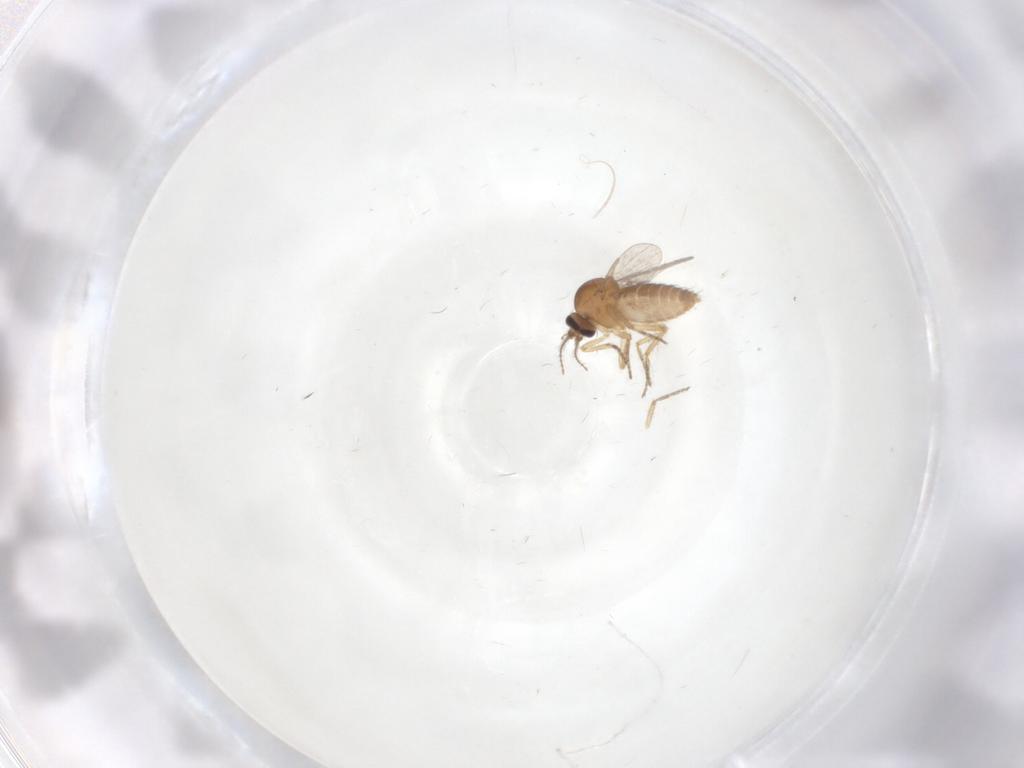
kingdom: Animalia
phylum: Arthropoda
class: Insecta
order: Diptera
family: Ceratopogonidae
